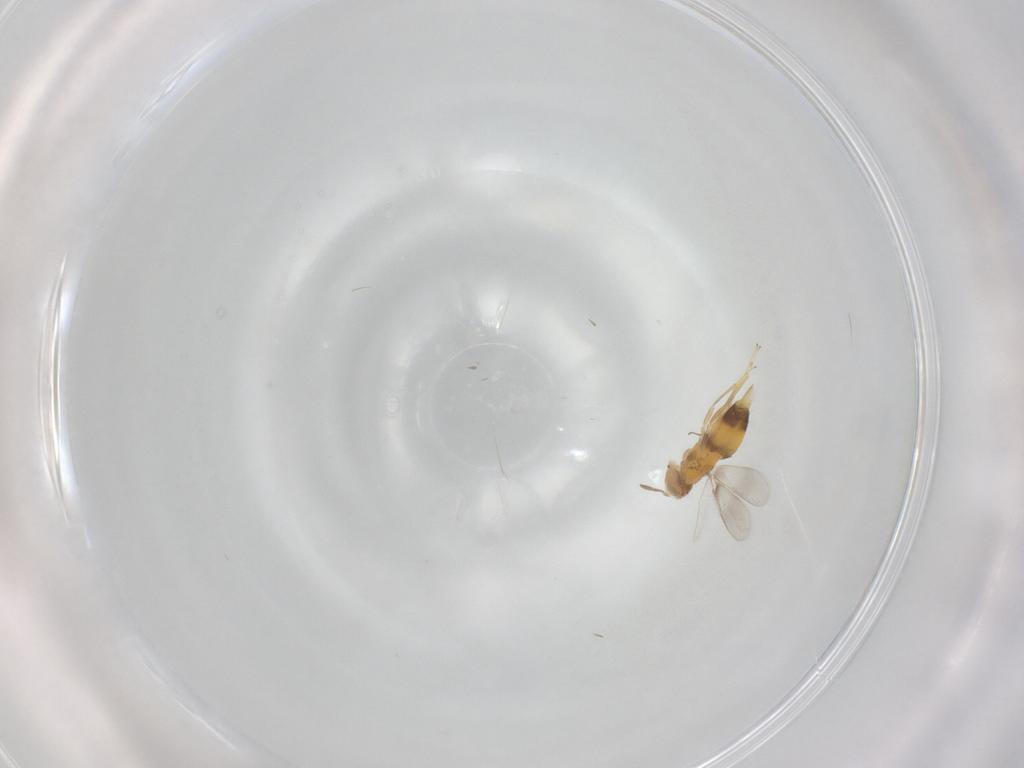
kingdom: Animalia
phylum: Arthropoda
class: Insecta
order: Hymenoptera
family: Aphelinidae
